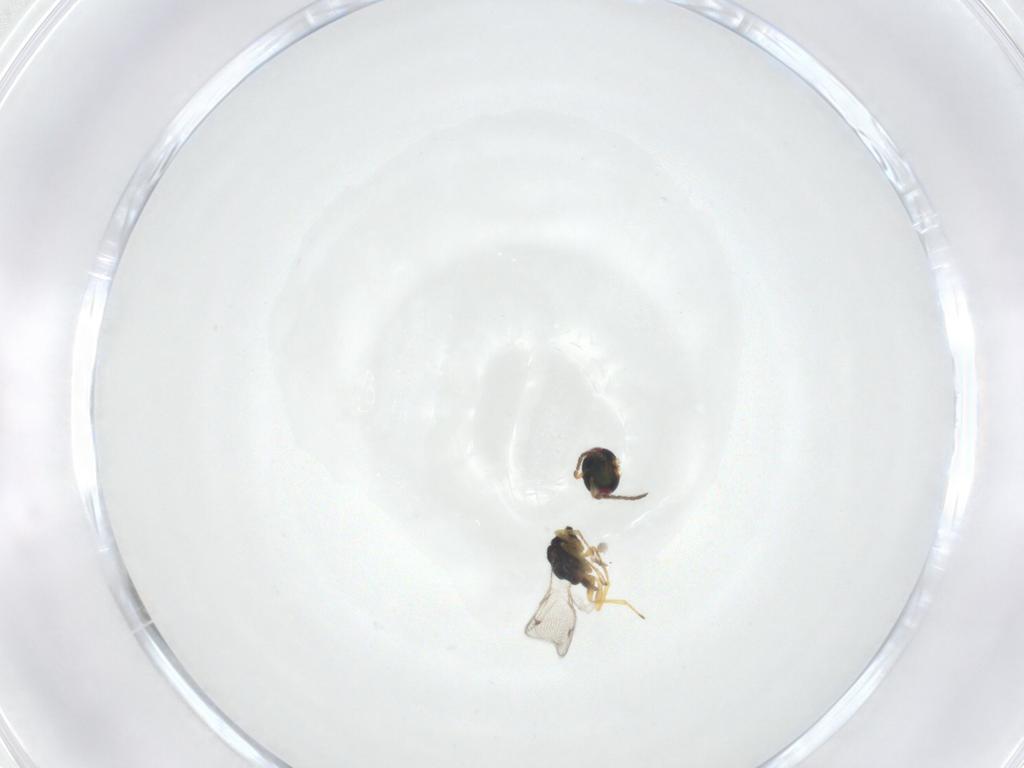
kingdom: Animalia
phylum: Arthropoda
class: Insecta
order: Hymenoptera
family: Pteromalidae
